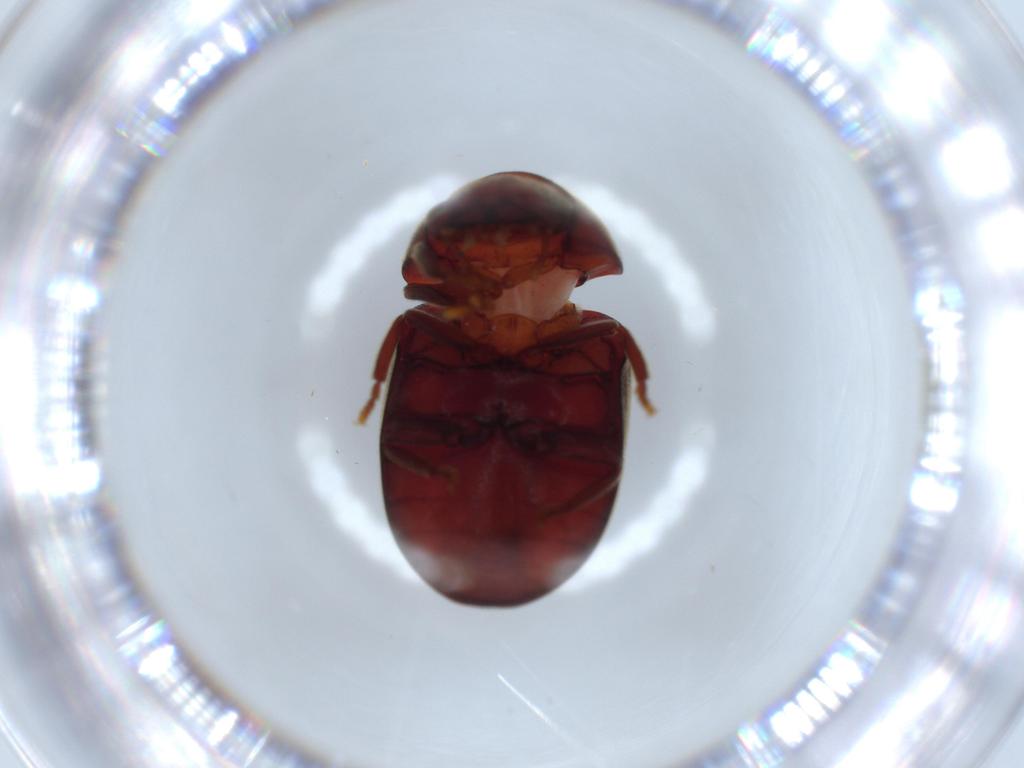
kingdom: Animalia
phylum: Arthropoda
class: Insecta
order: Coleoptera
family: Ptinidae
